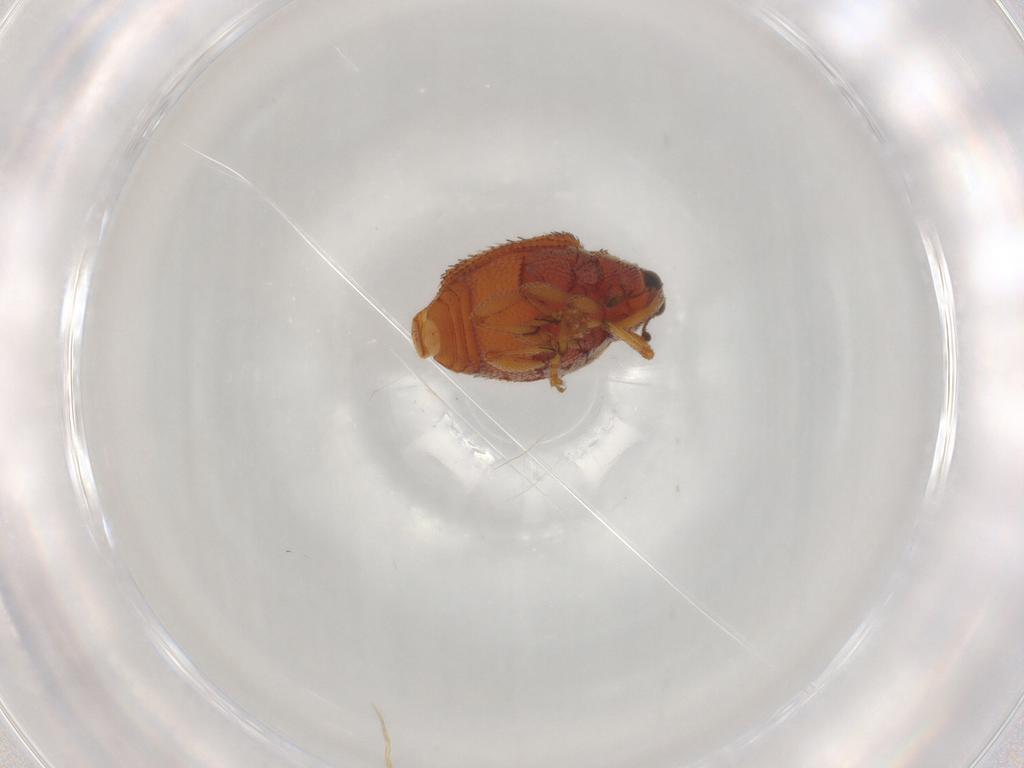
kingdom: Animalia
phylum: Arthropoda
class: Insecta
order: Coleoptera
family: Curculionidae
